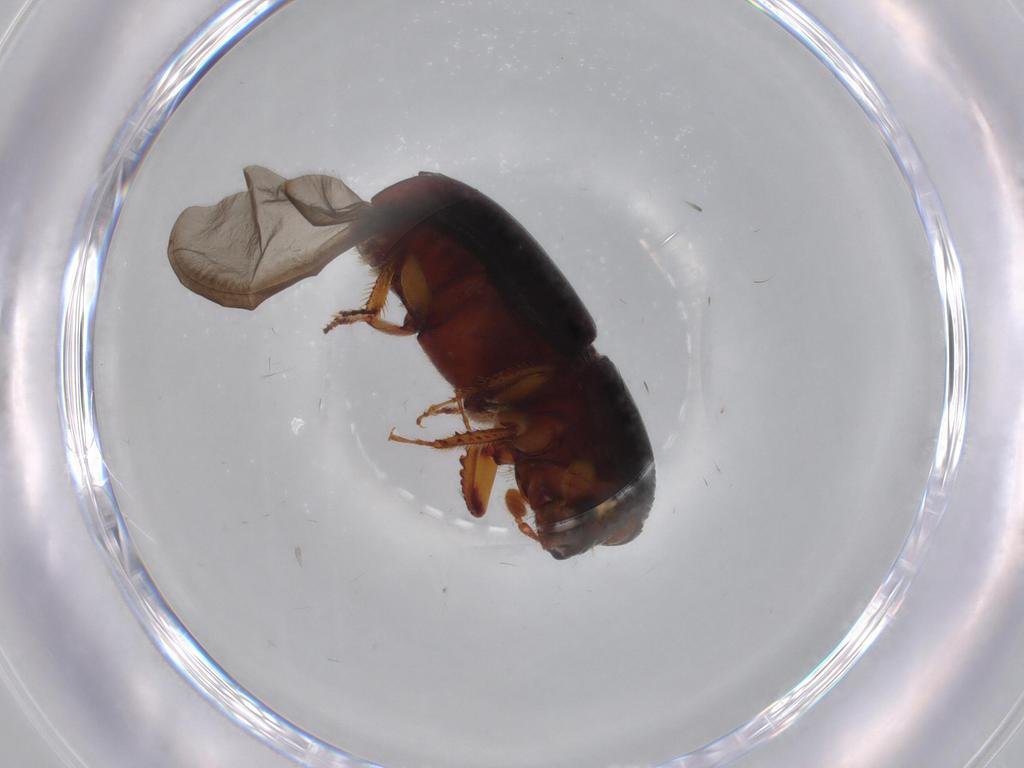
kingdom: Animalia
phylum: Arthropoda
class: Insecta
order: Coleoptera
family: Curculionidae
